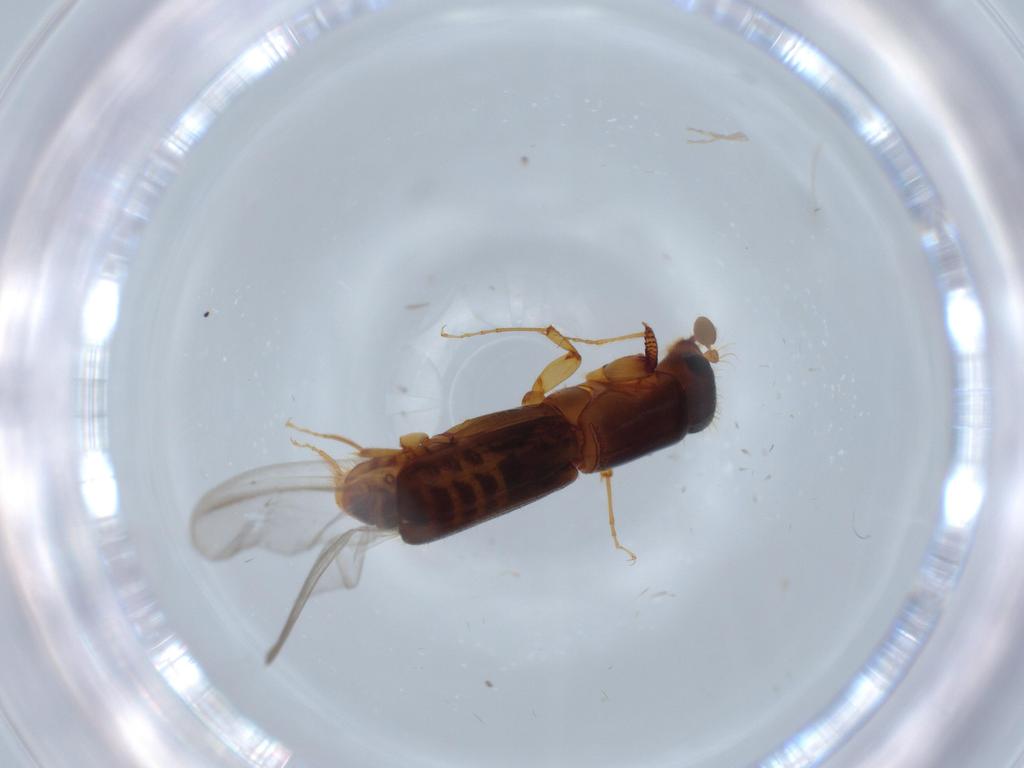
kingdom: Animalia
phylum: Arthropoda
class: Insecta
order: Coleoptera
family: Curculionidae
